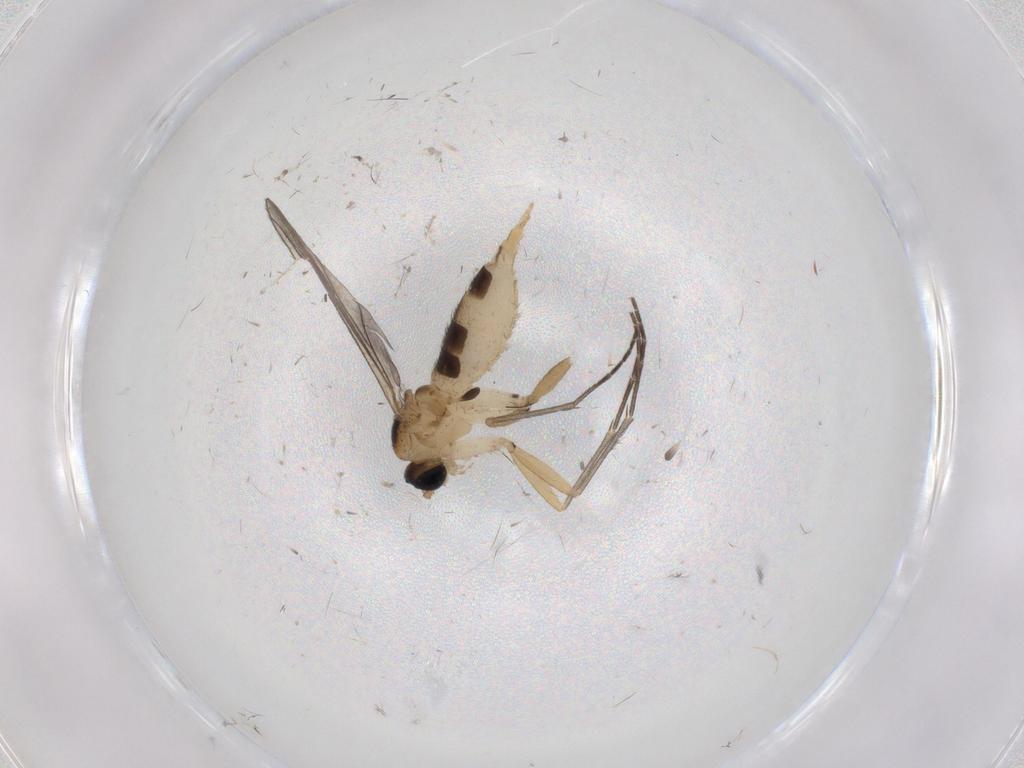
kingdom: Animalia
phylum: Arthropoda
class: Insecta
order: Diptera
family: Sciaridae
